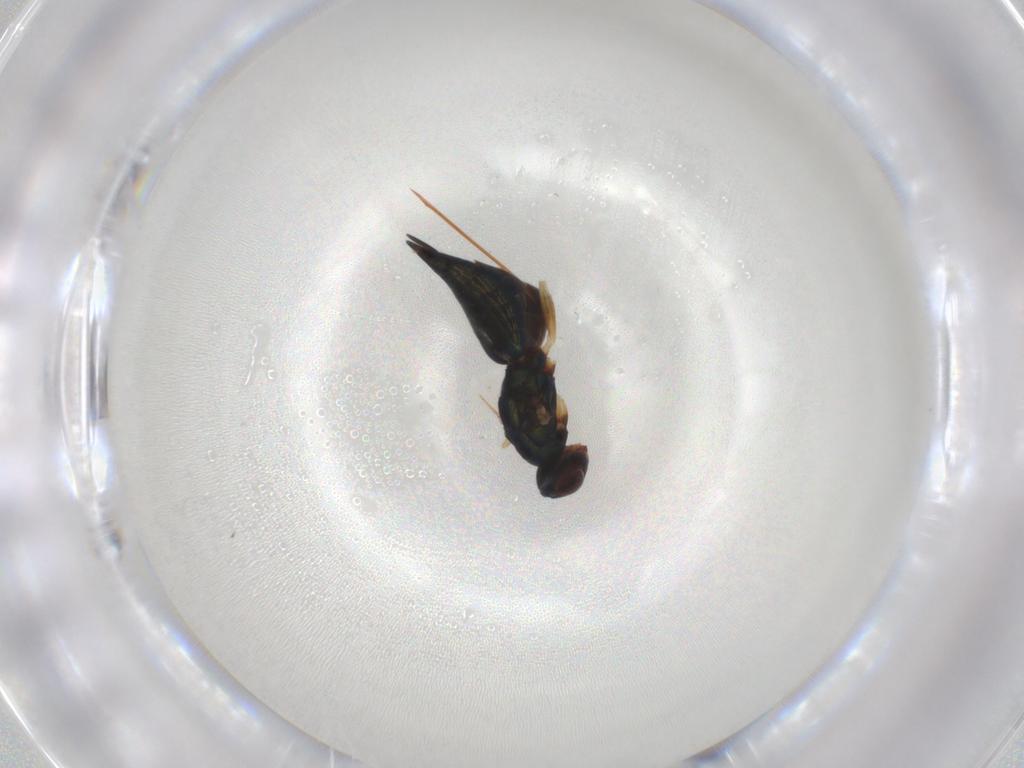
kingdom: Animalia
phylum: Arthropoda
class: Insecta
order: Hymenoptera
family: Eulophidae
